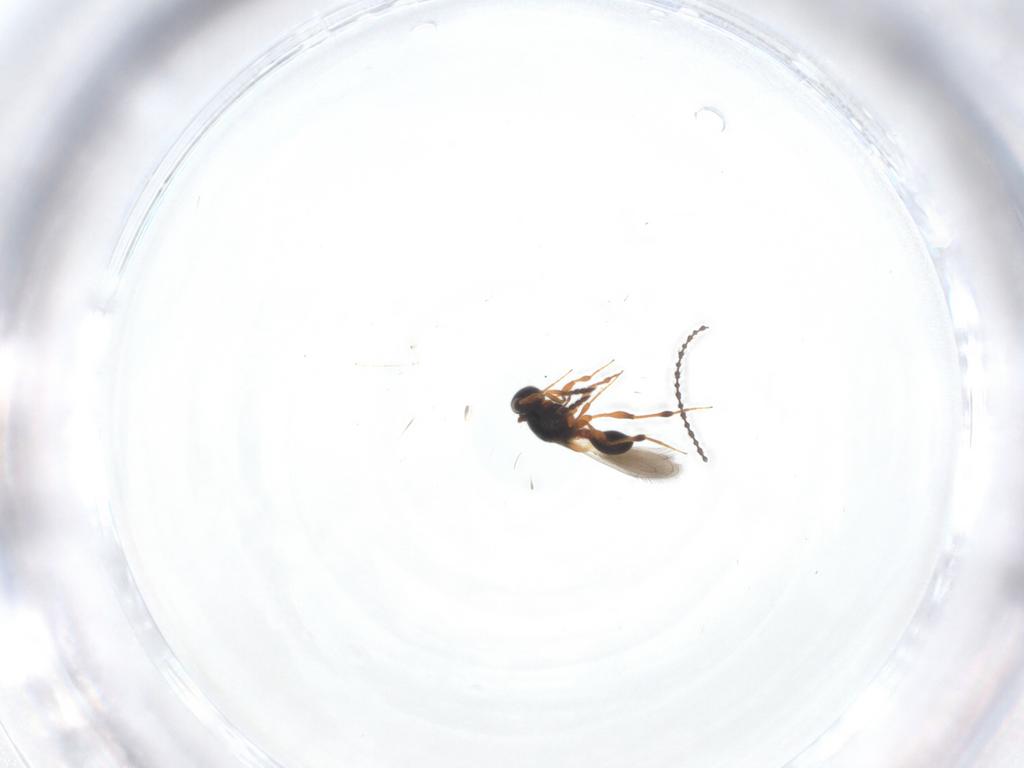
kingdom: Animalia
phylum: Arthropoda
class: Insecta
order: Hymenoptera
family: Platygastridae
